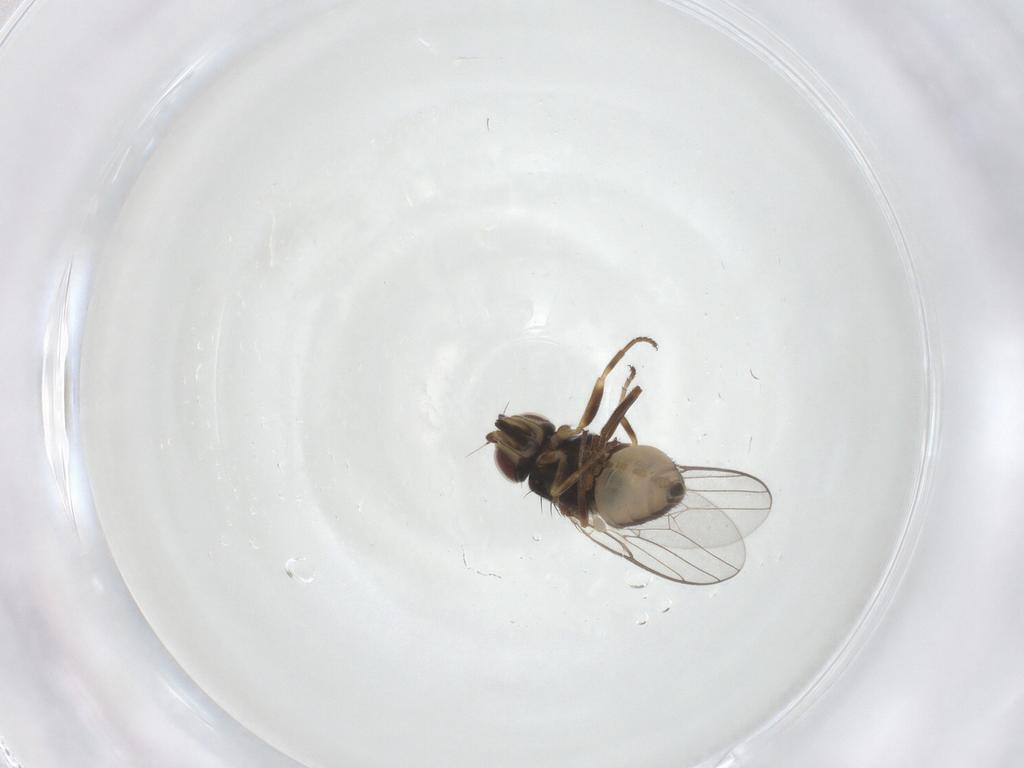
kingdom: Animalia
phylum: Arthropoda
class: Insecta
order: Diptera
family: Chloropidae
